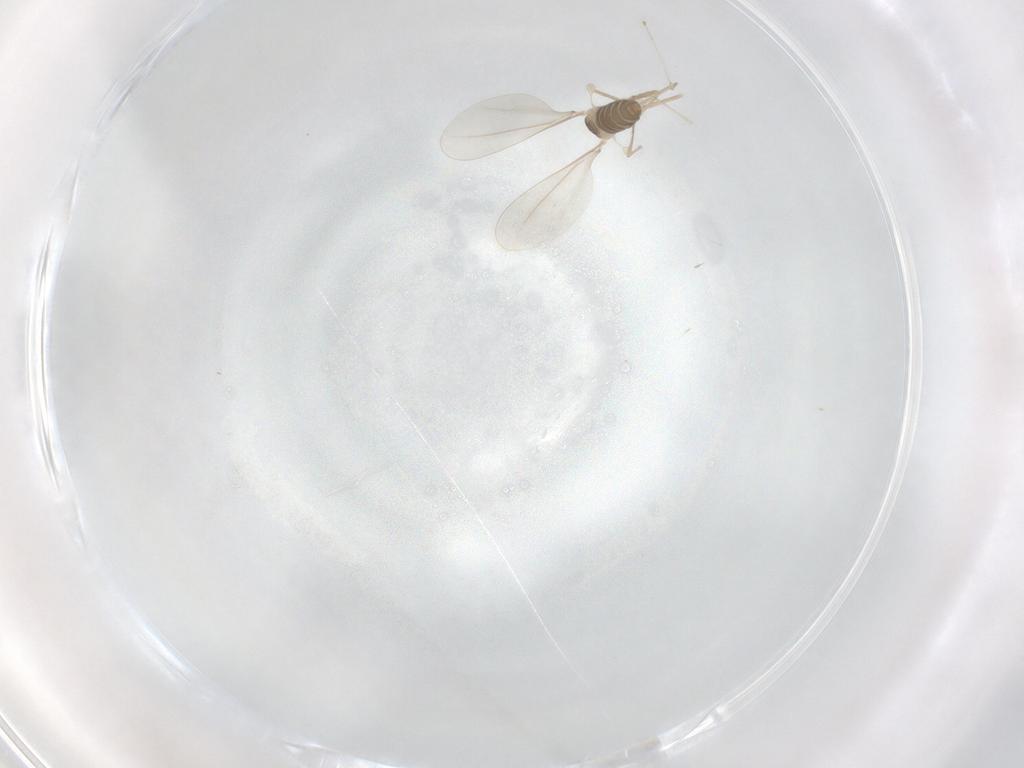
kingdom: Animalia
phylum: Arthropoda
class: Insecta
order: Diptera
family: Cecidomyiidae
